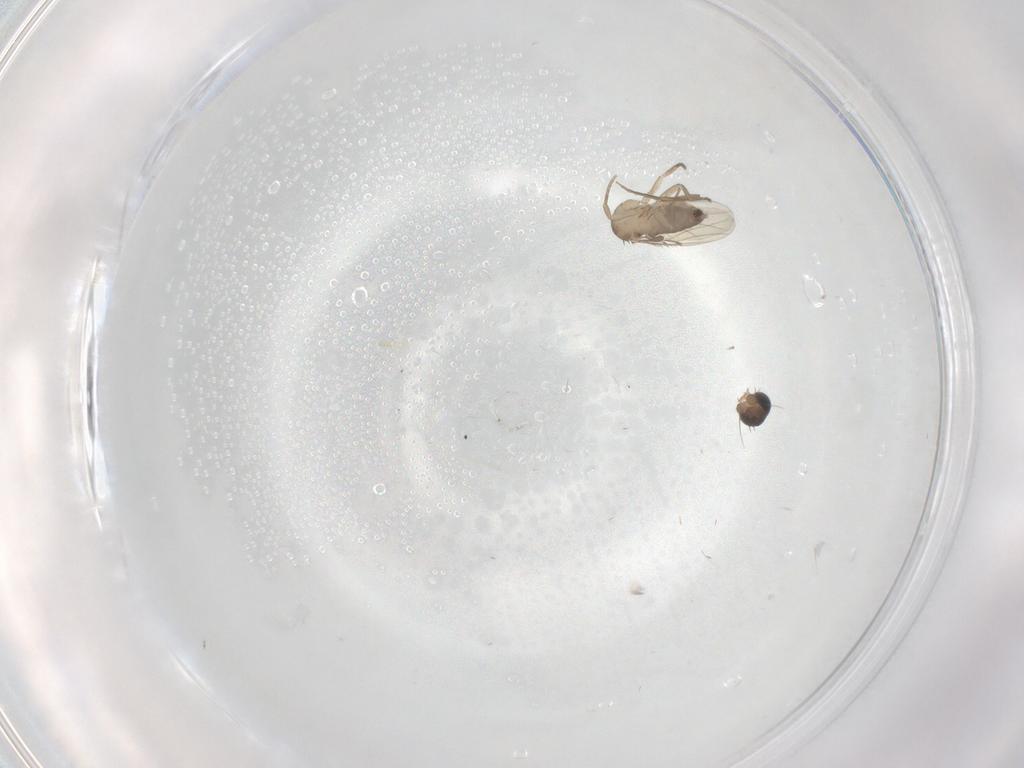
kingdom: Animalia
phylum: Arthropoda
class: Insecta
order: Diptera
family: Phoridae
